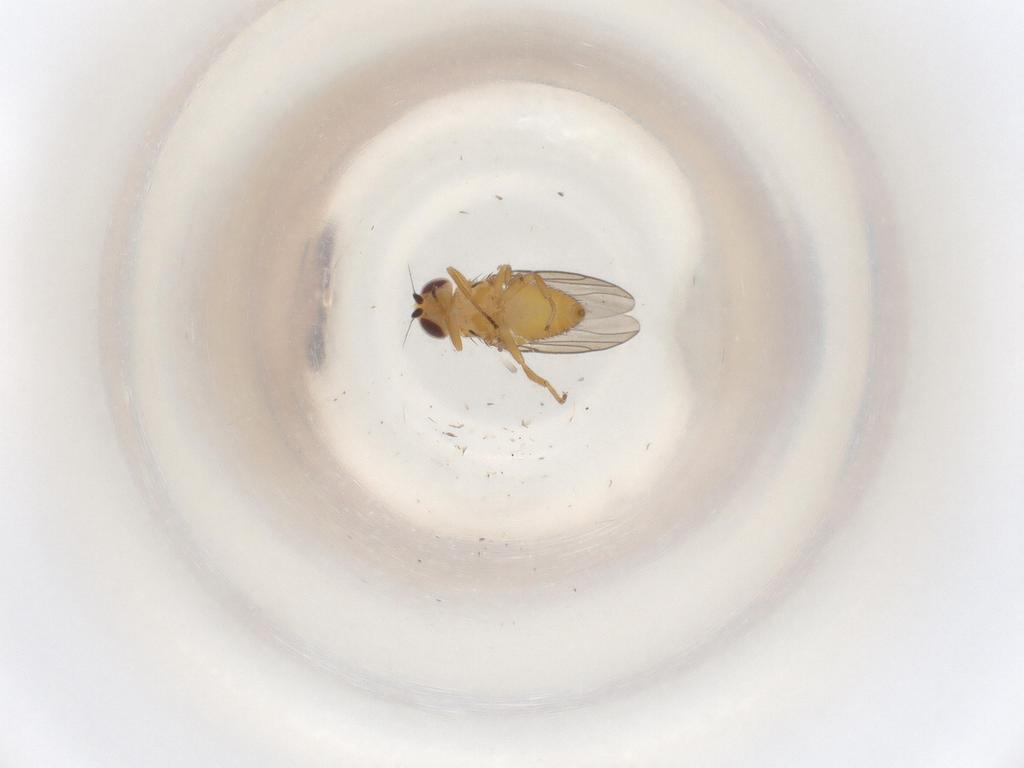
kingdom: Animalia
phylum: Arthropoda
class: Insecta
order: Diptera
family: Chloropidae
